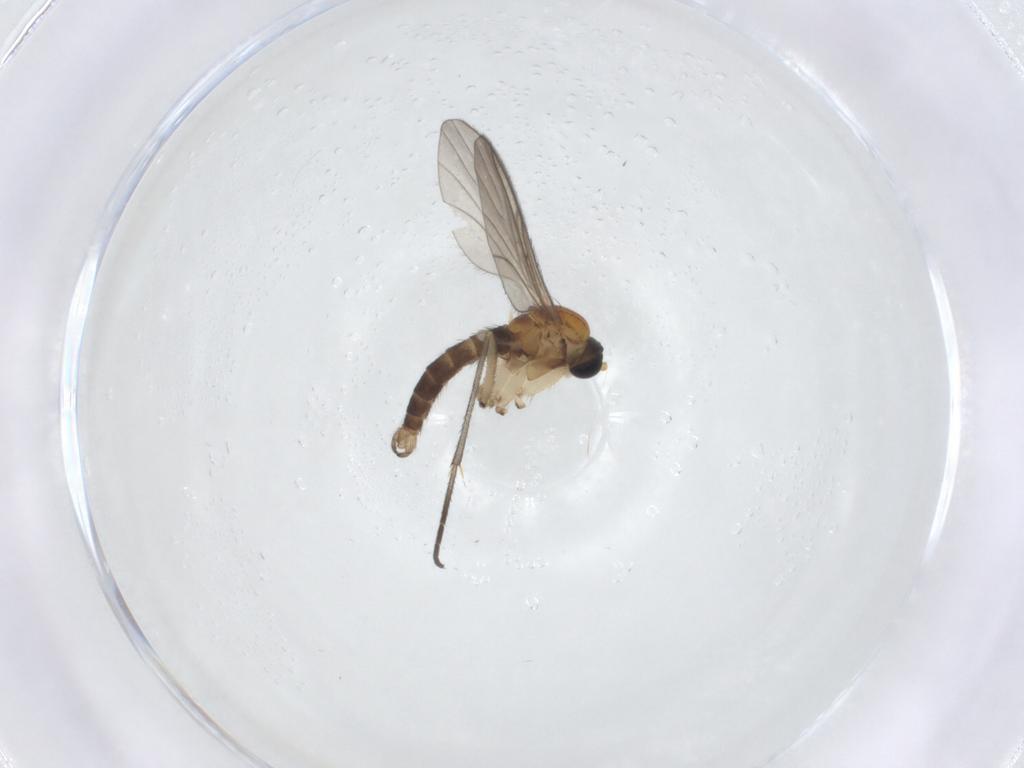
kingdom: Animalia
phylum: Arthropoda
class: Insecta
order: Diptera
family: Sciaridae
